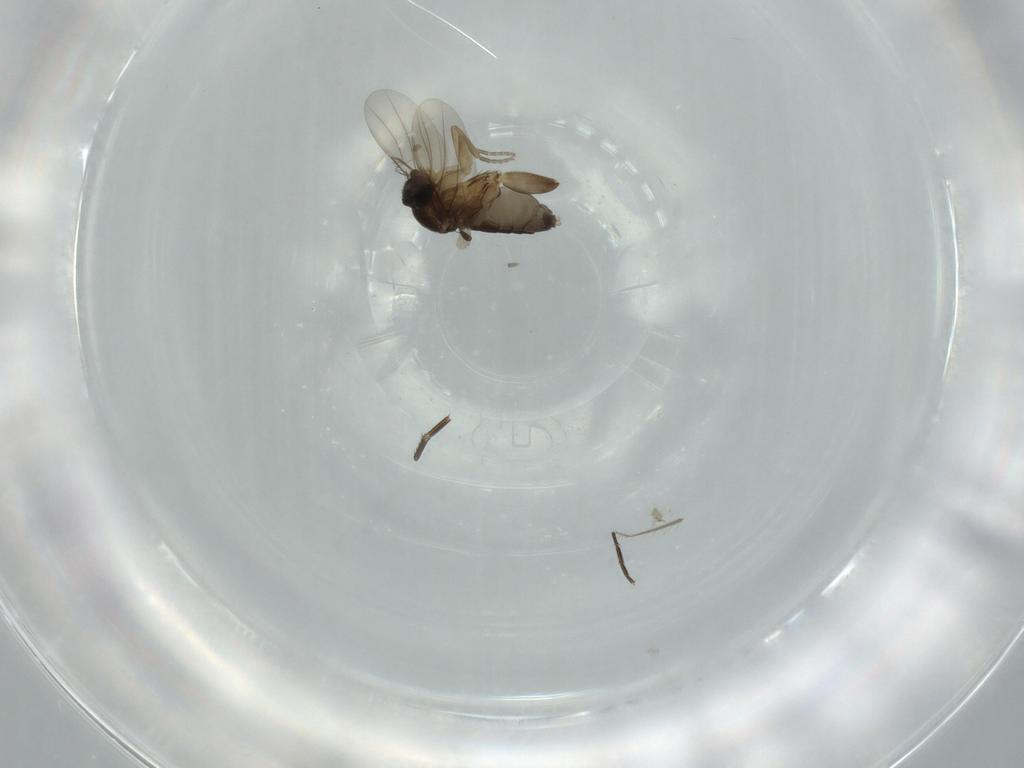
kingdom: Animalia
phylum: Arthropoda
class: Insecta
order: Diptera
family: Phoridae
